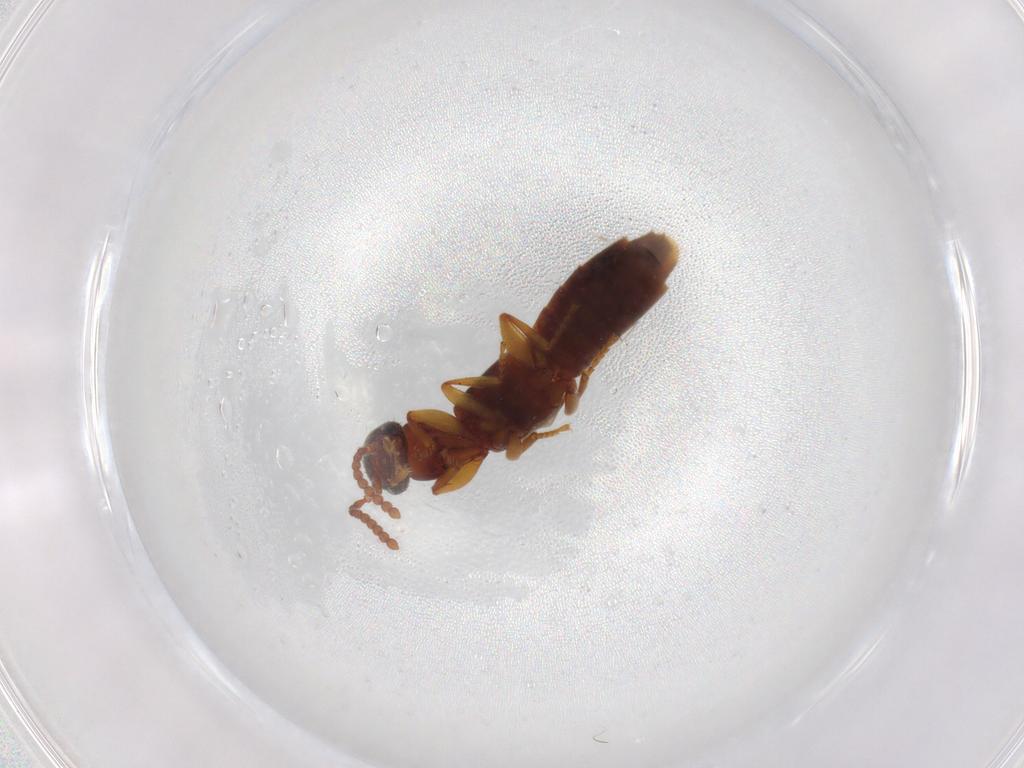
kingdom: Animalia
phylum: Arthropoda
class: Insecta
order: Coleoptera
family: Staphylinidae
